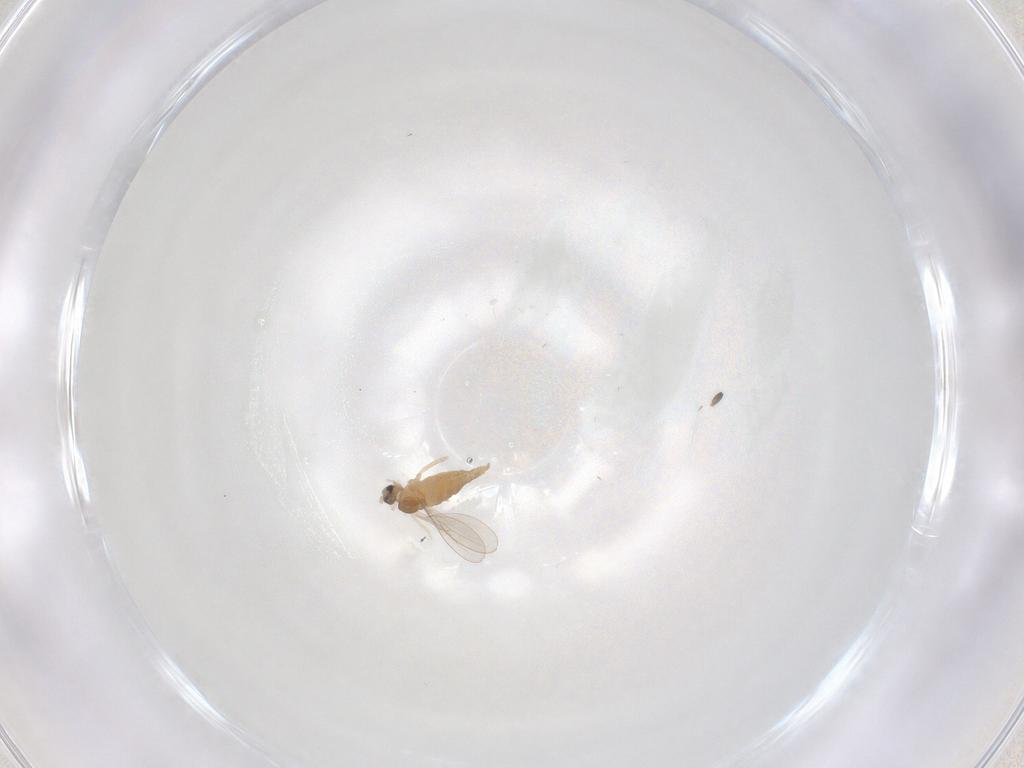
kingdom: Animalia
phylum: Arthropoda
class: Insecta
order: Diptera
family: Cecidomyiidae
